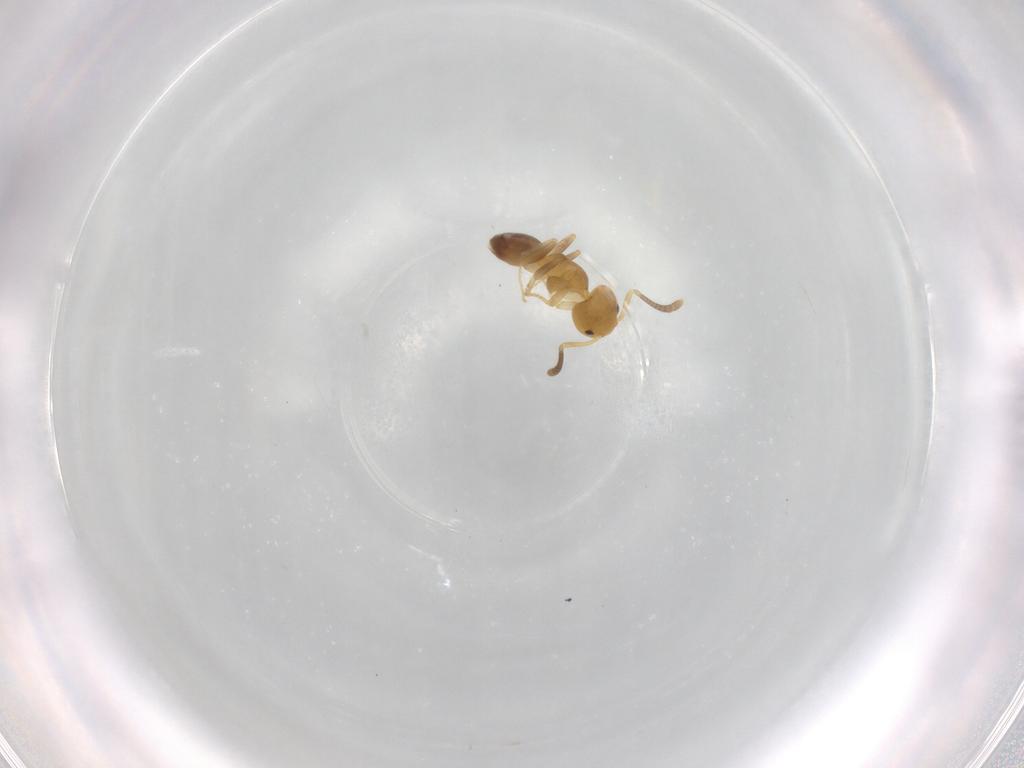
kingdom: Animalia
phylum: Arthropoda
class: Insecta
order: Hymenoptera
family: Formicidae
